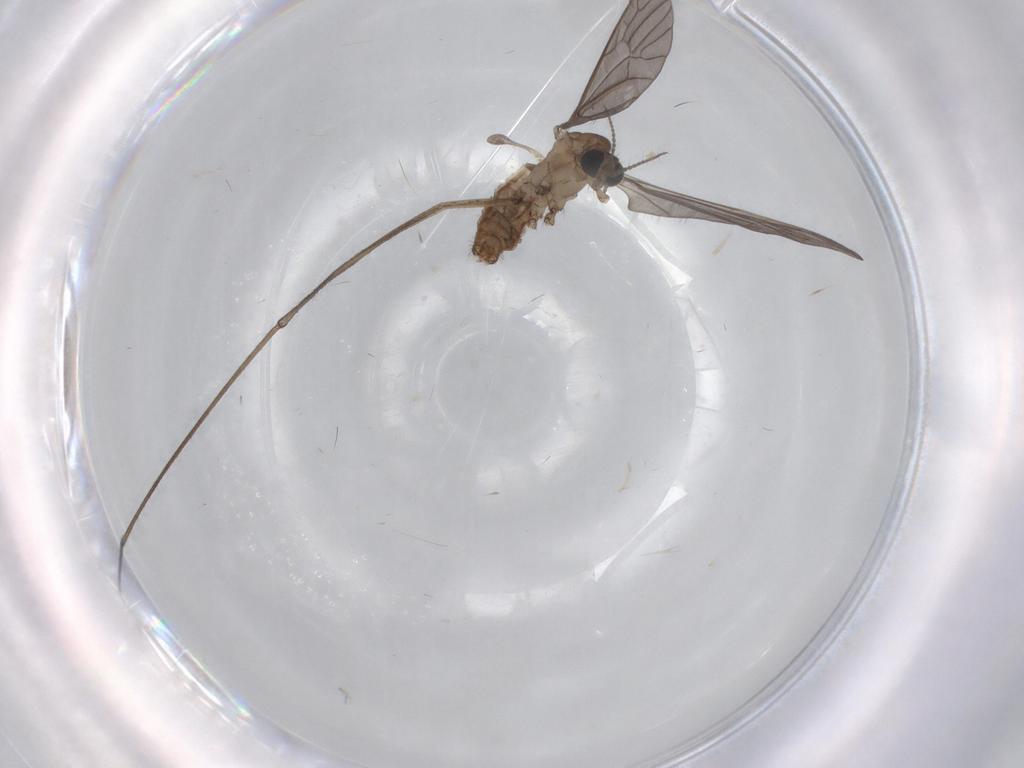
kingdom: Animalia
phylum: Arthropoda
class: Insecta
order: Diptera
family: Limoniidae
